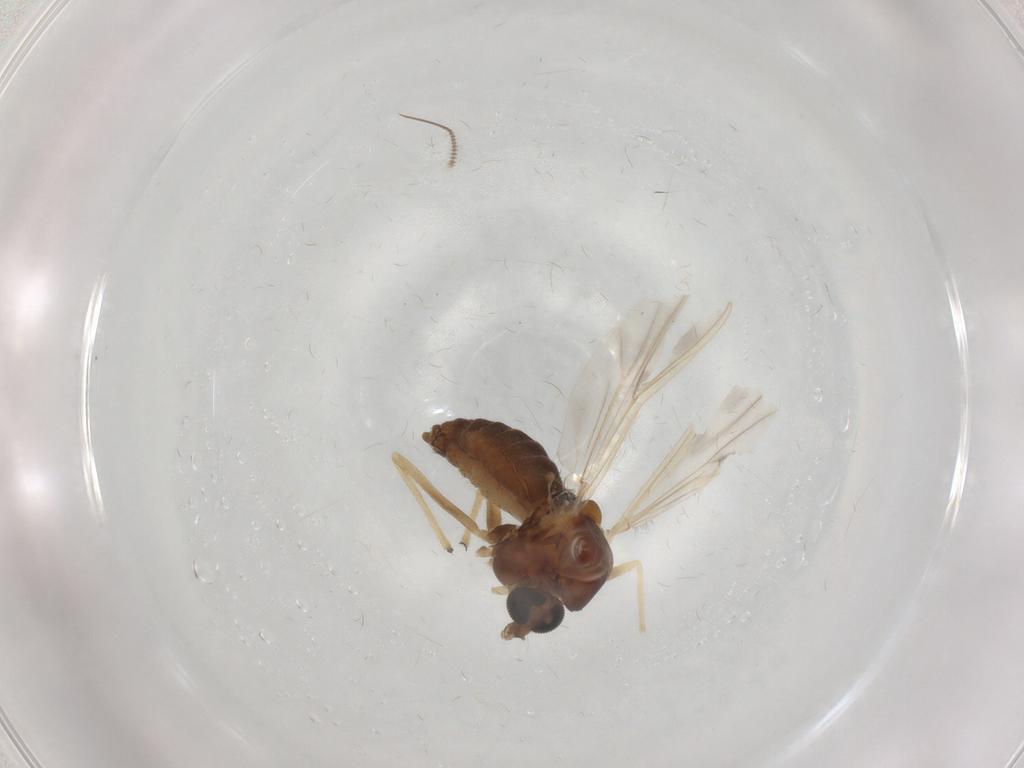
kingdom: Animalia
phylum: Arthropoda
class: Insecta
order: Diptera
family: Chironomidae
